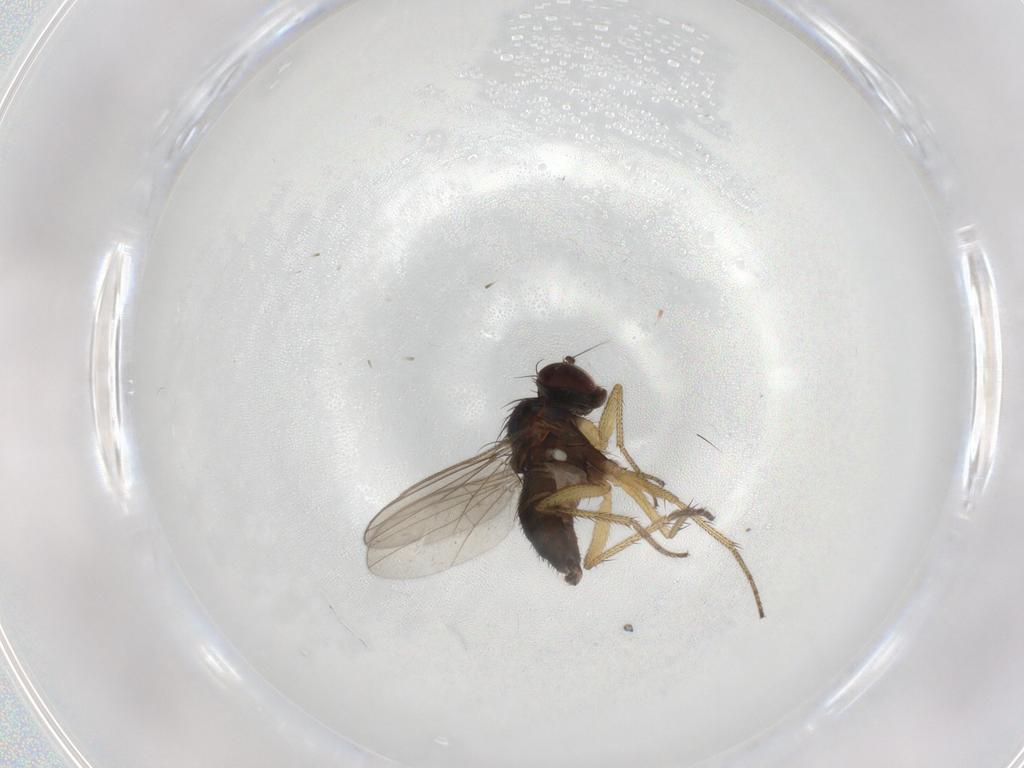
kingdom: Animalia
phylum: Arthropoda
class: Insecta
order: Diptera
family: Dolichopodidae
